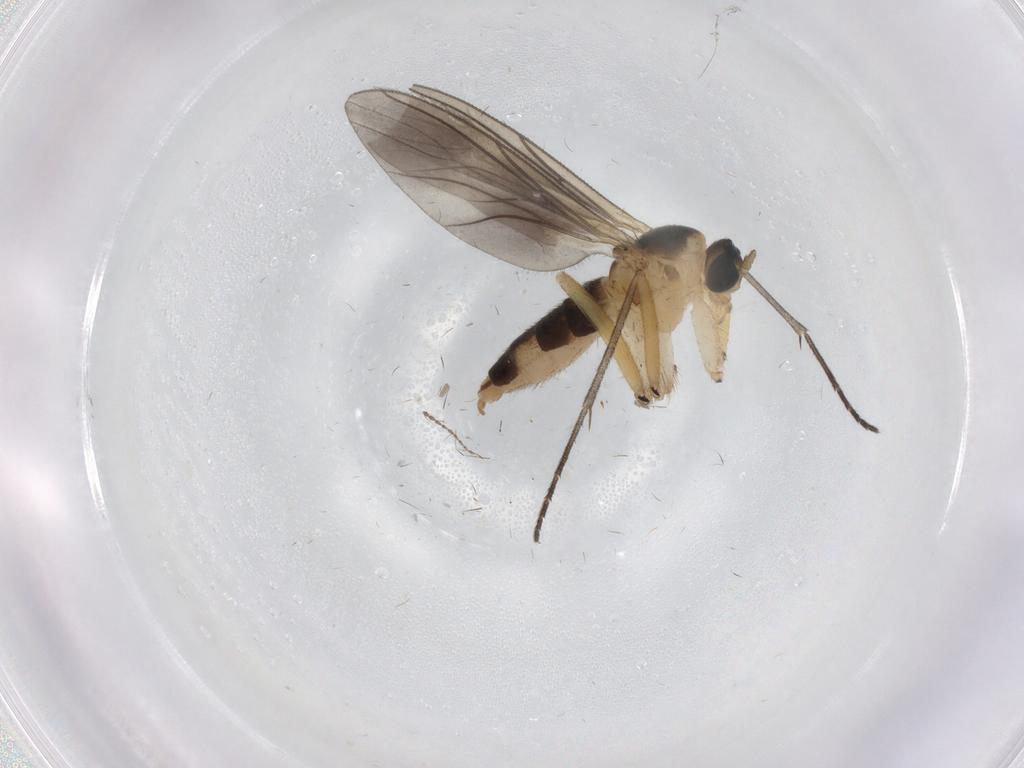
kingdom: Animalia
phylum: Arthropoda
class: Insecta
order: Diptera
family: Sciaridae
